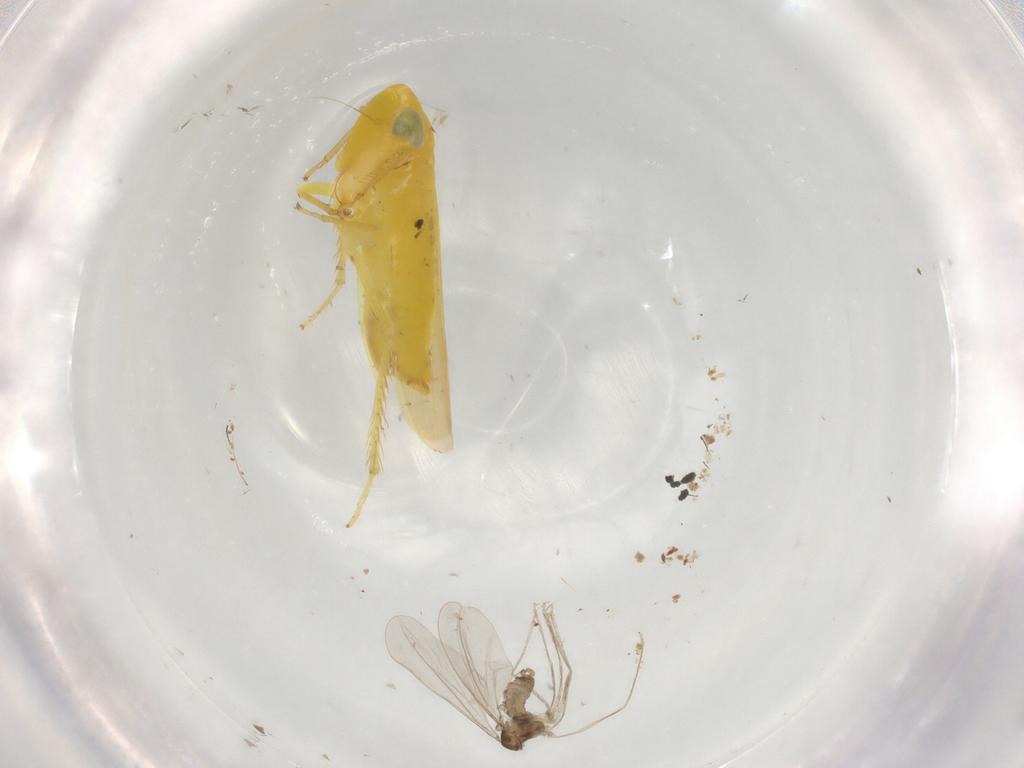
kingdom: Animalia
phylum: Arthropoda
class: Insecta
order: Diptera
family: Cecidomyiidae
